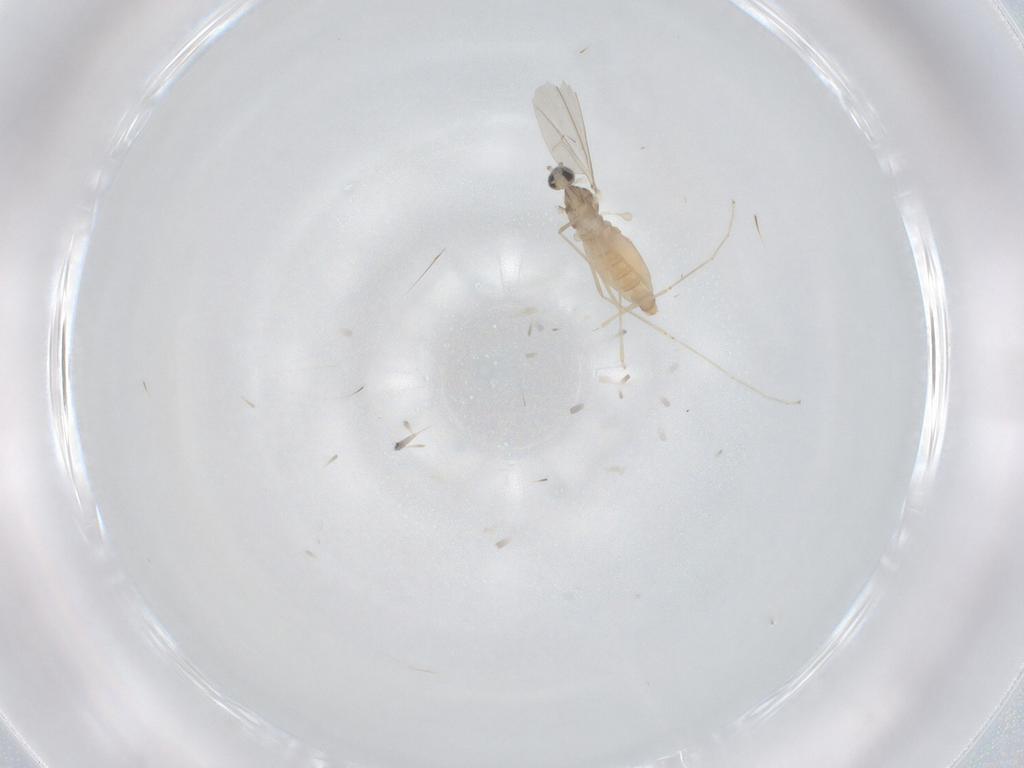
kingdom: Animalia
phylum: Arthropoda
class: Insecta
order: Diptera
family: Cecidomyiidae
